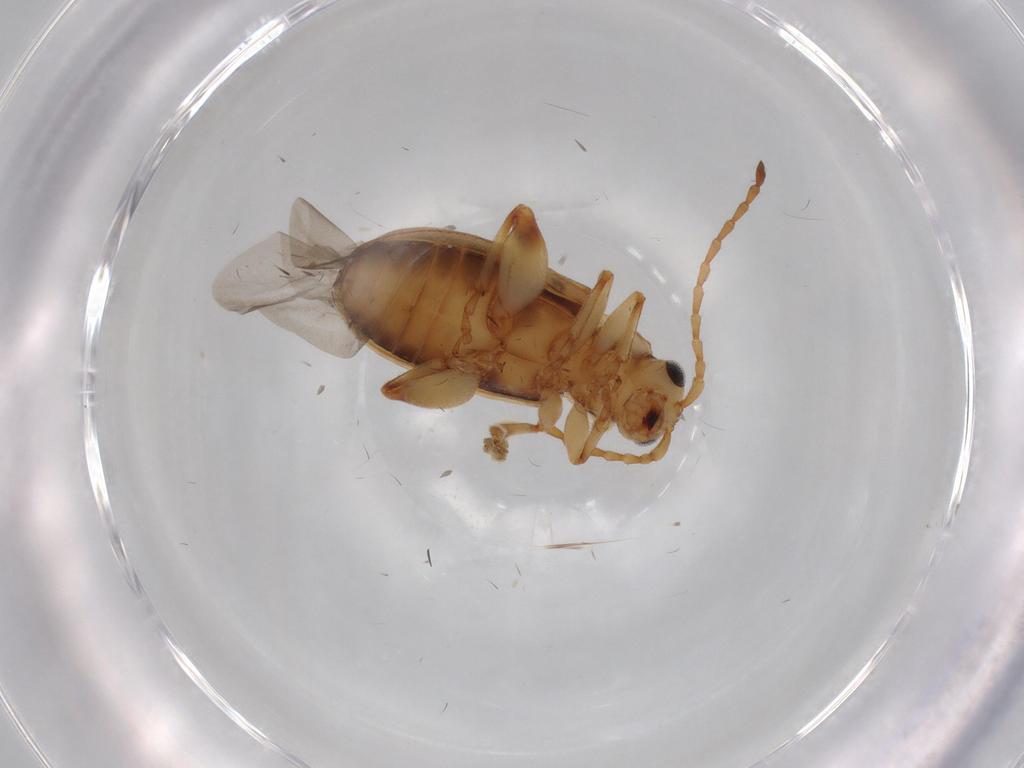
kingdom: Animalia
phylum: Arthropoda
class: Insecta
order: Coleoptera
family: Chrysomelidae
